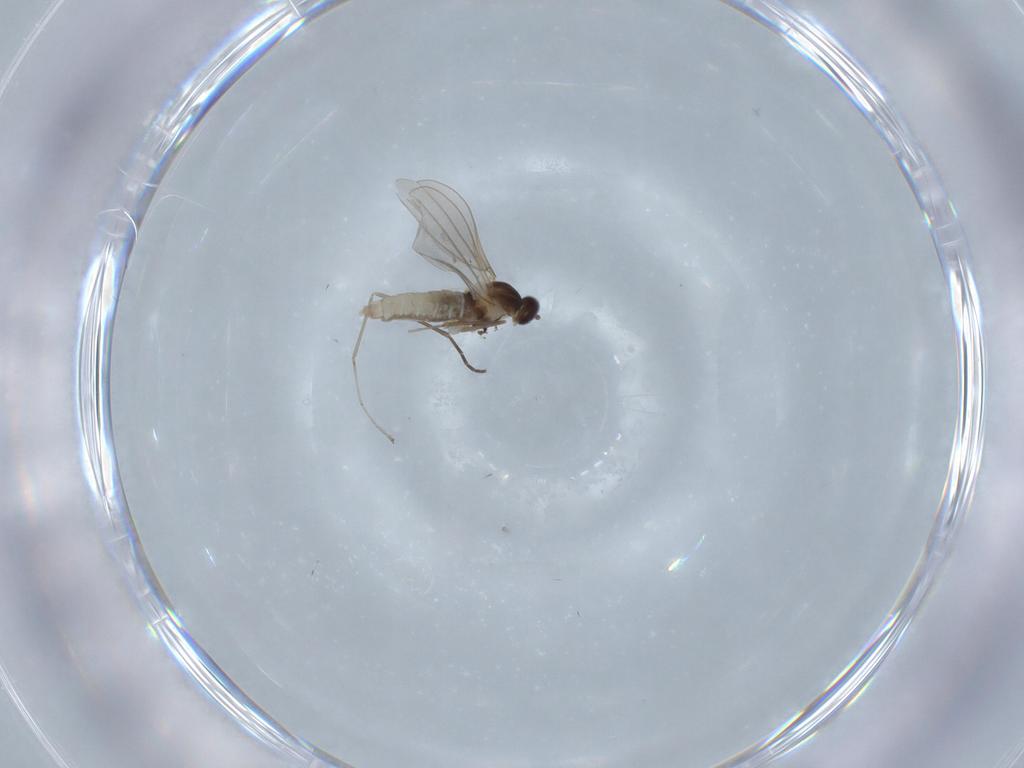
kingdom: Animalia
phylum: Arthropoda
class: Insecta
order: Diptera
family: Cecidomyiidae
